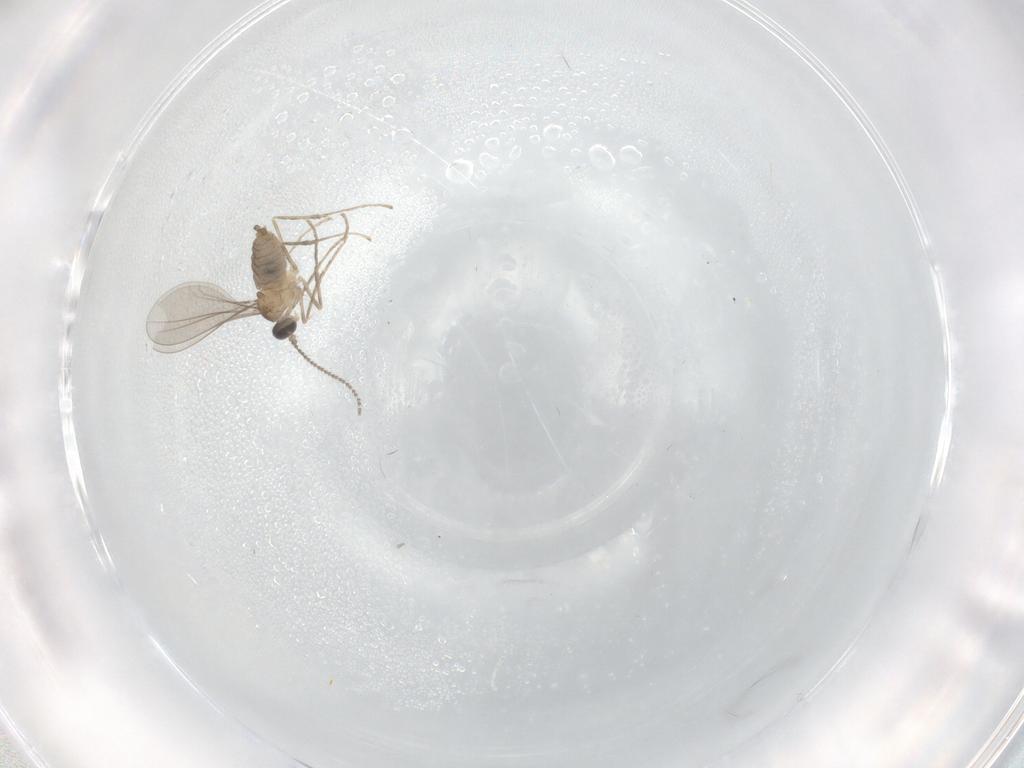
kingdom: Animalia
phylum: Arthropoda
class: Insecta
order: Diptera
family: Cecidomyiidae
